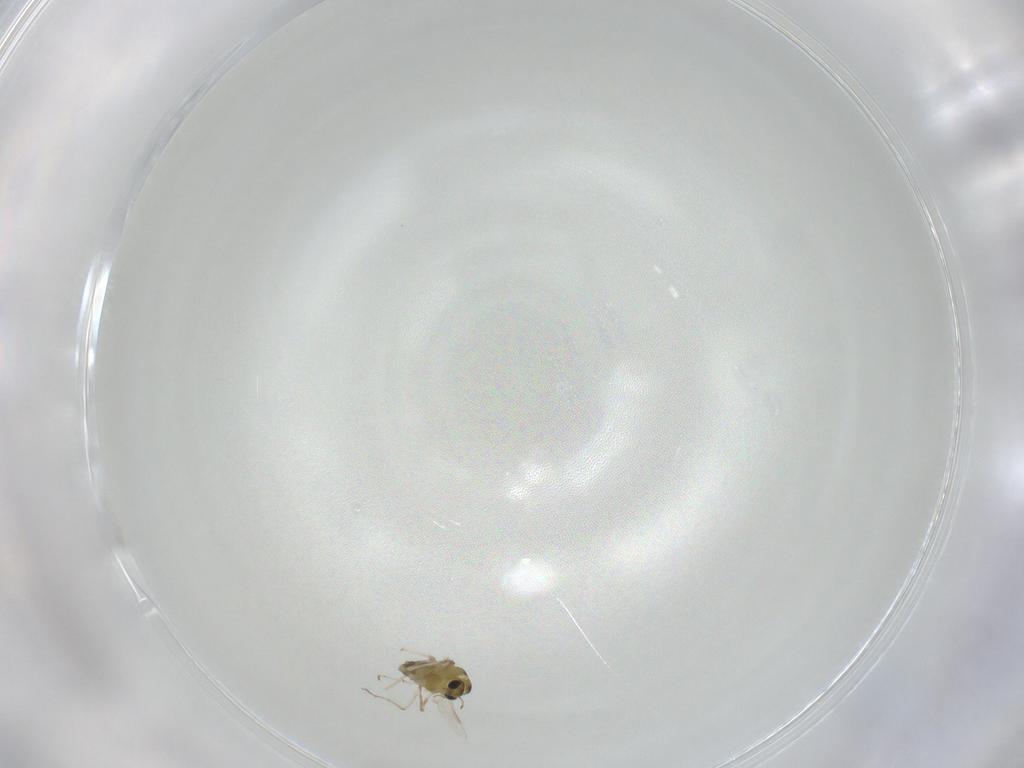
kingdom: Animalia
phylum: Arthropoda
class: Insecta
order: Diptera
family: Chironomidae
